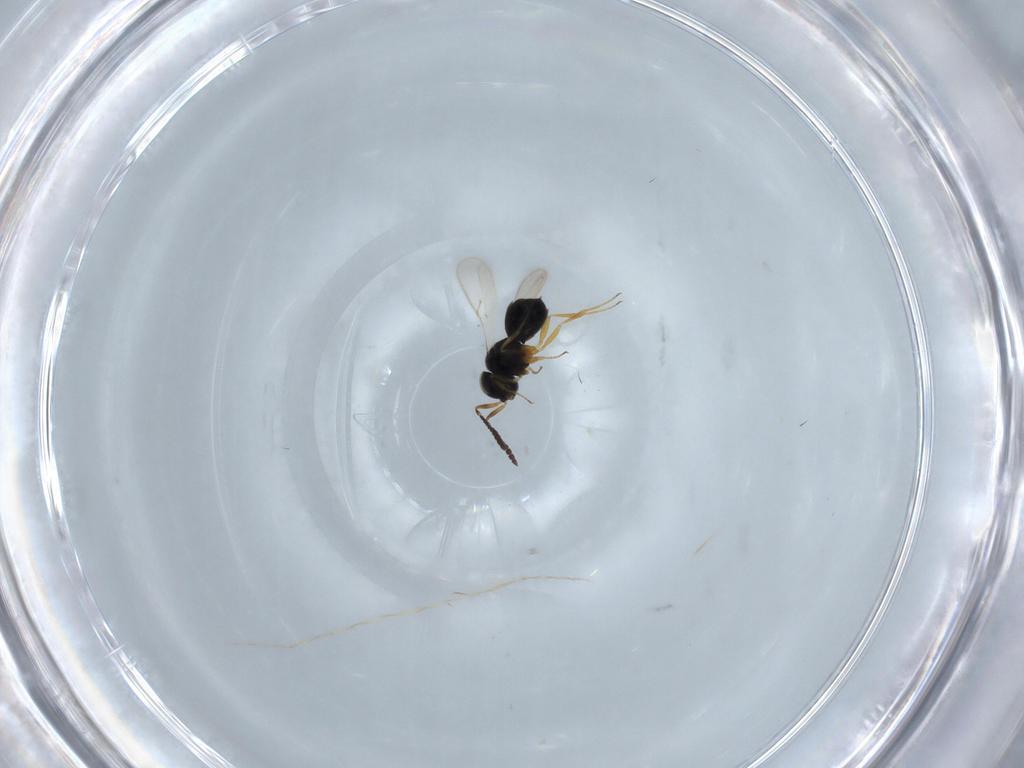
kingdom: Animalia
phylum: Arthropoda
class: Insecta
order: Hymenoptera
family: Scelionidae
